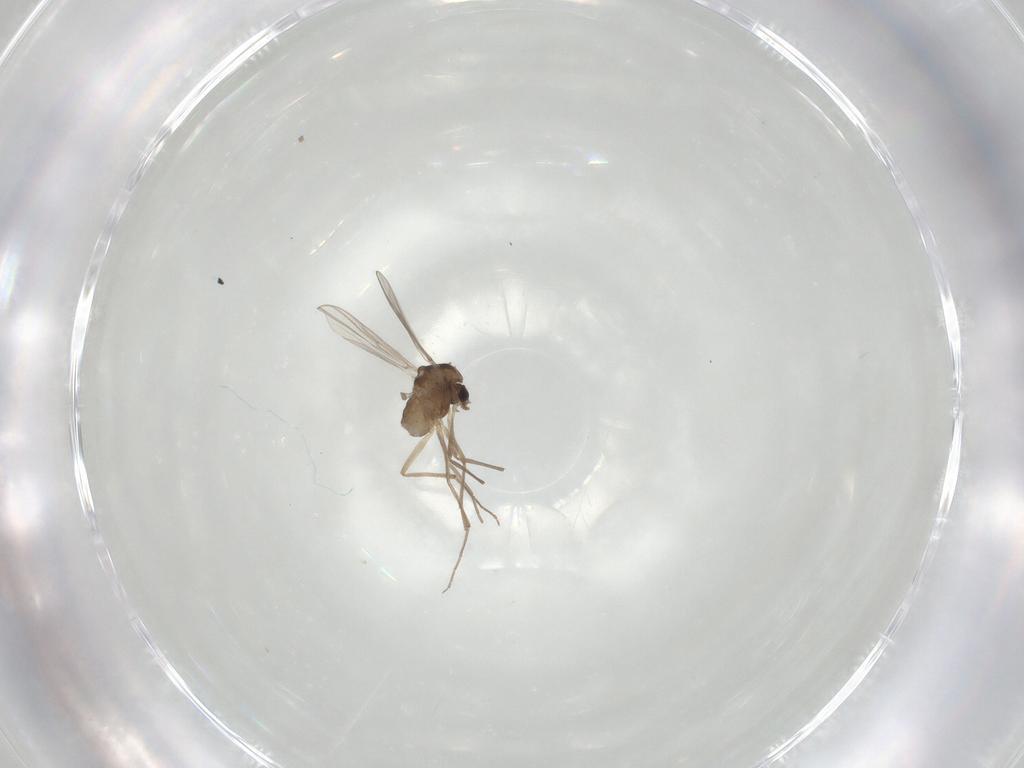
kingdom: Animalia
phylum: Arthropoda
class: Insecta
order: Diptera
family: Chironomidae
